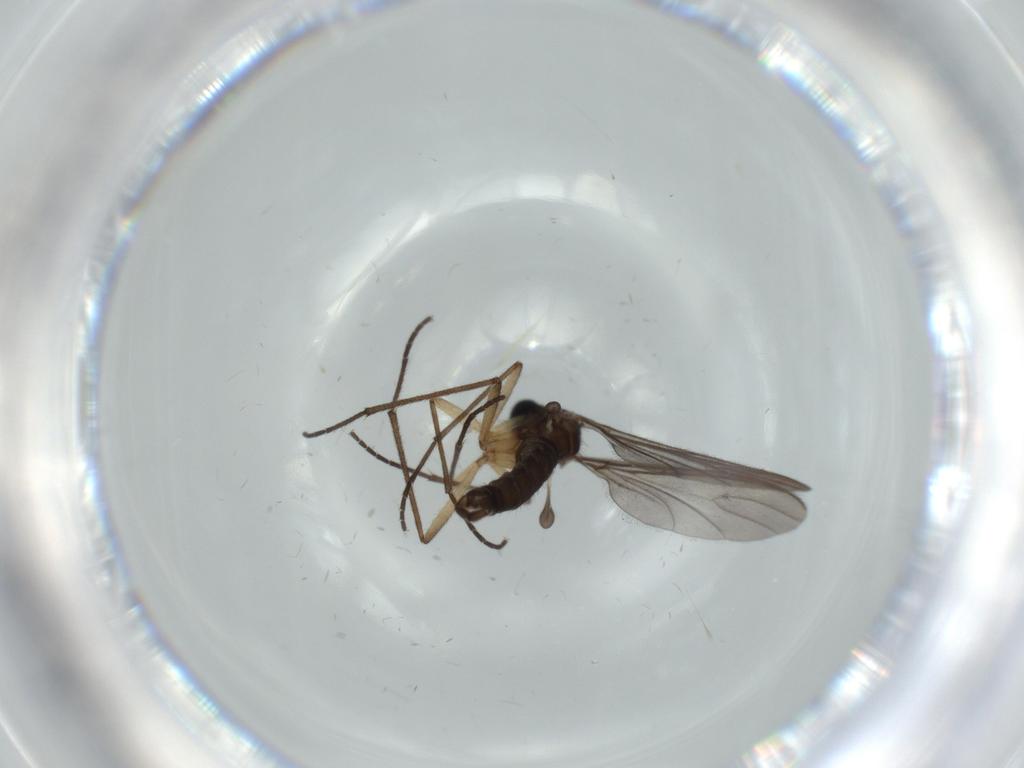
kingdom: Animalia
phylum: Arthropoda
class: Insecta
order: Diptera
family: Sciaridae
